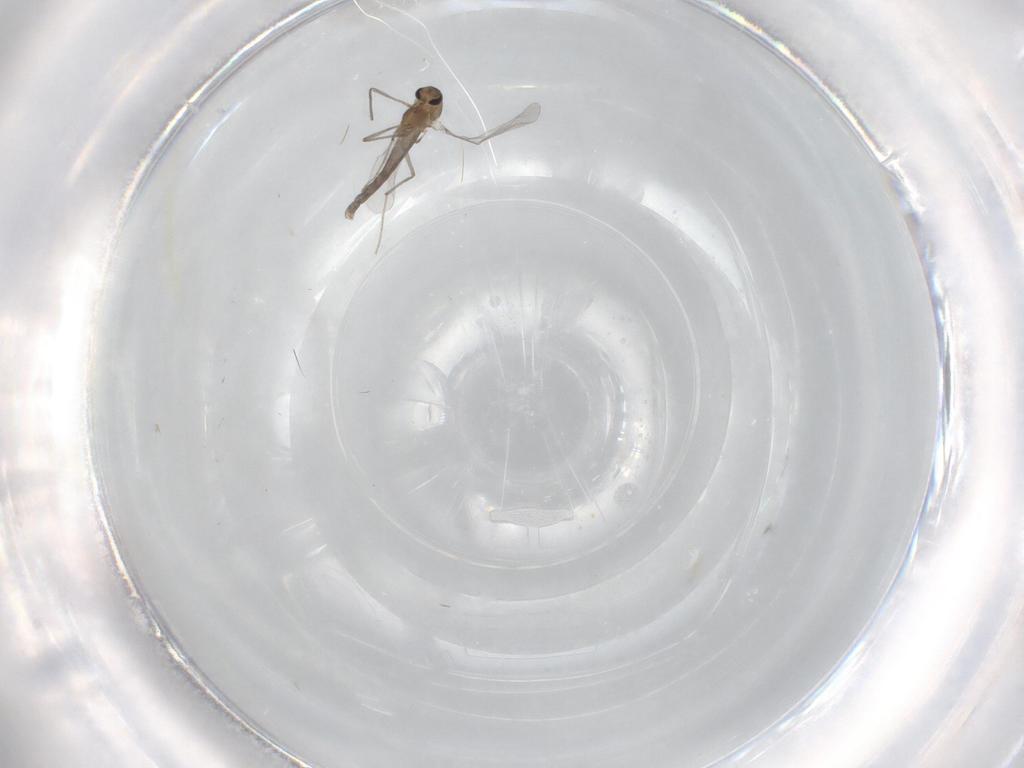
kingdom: Animalia
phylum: Arthropoda
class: Insecta
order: Diptera
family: Chironomidae
